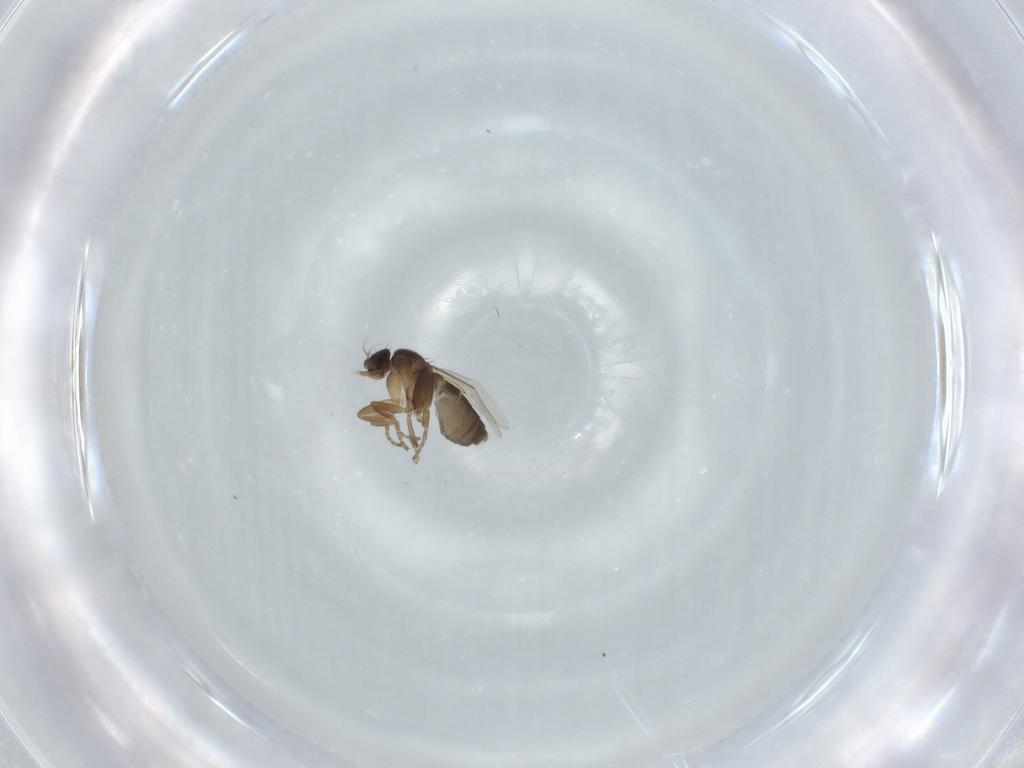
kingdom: Animalia
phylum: Arthropoda
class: Insecta
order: Diptera
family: Phoridae
